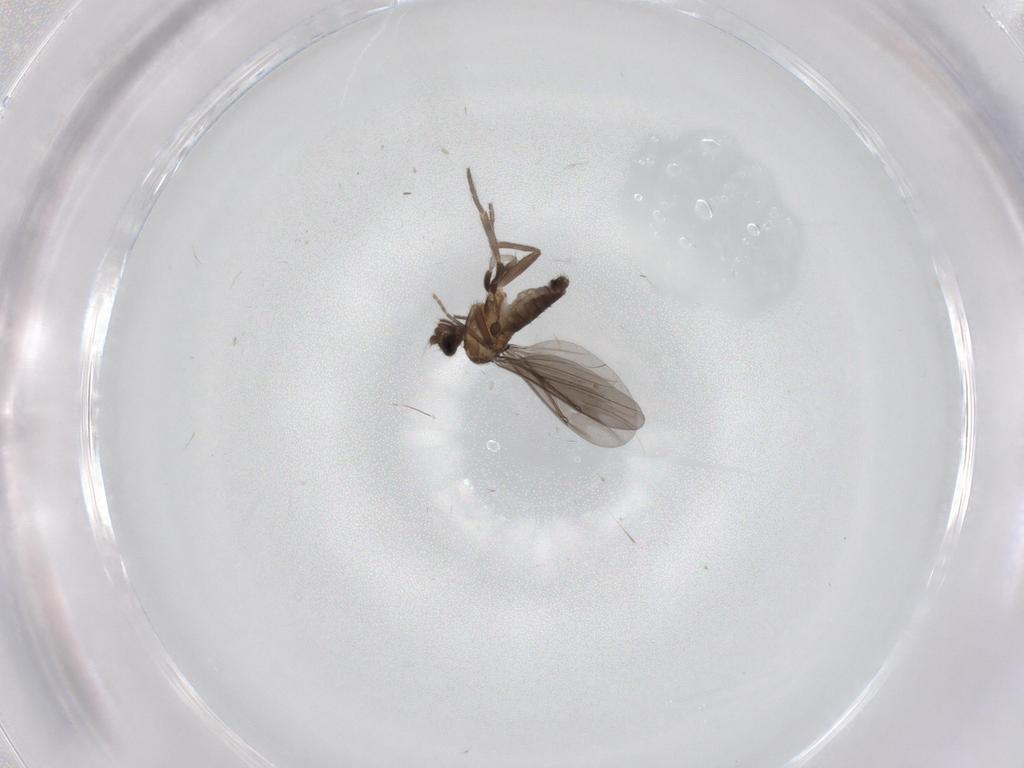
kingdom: Animalia
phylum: Arthropoda
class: Insecta
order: Diptera
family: Phoridae
